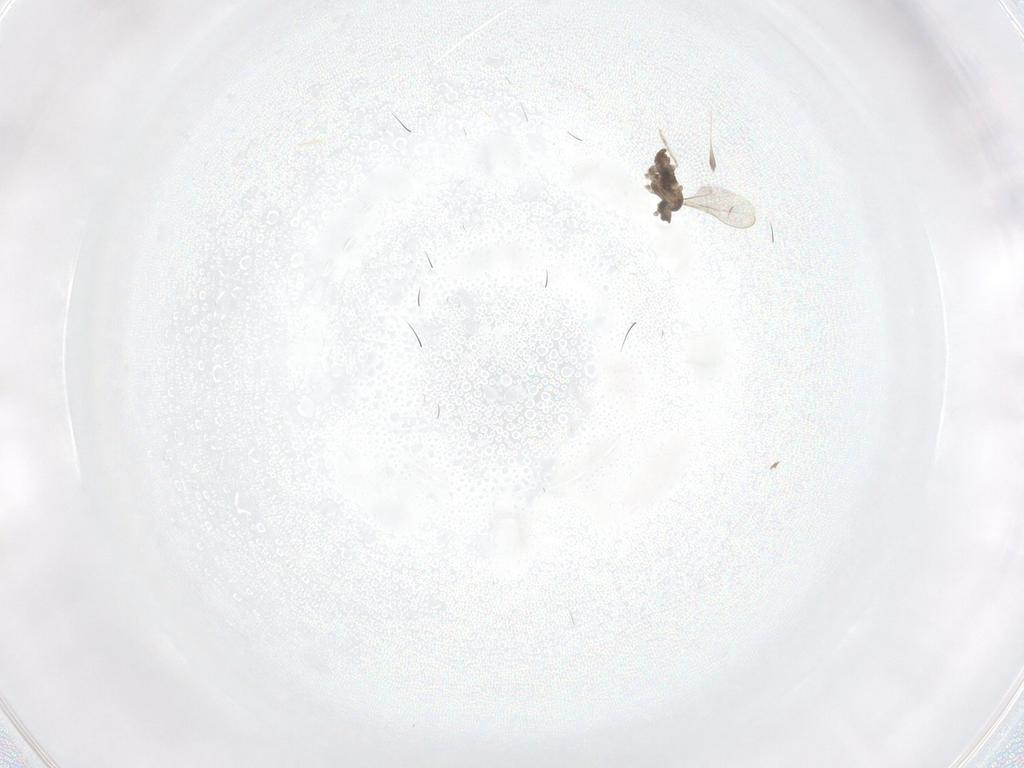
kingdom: Animalia
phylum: Arthropoda
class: Insecta
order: Diptera
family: Cecidomyiidae
